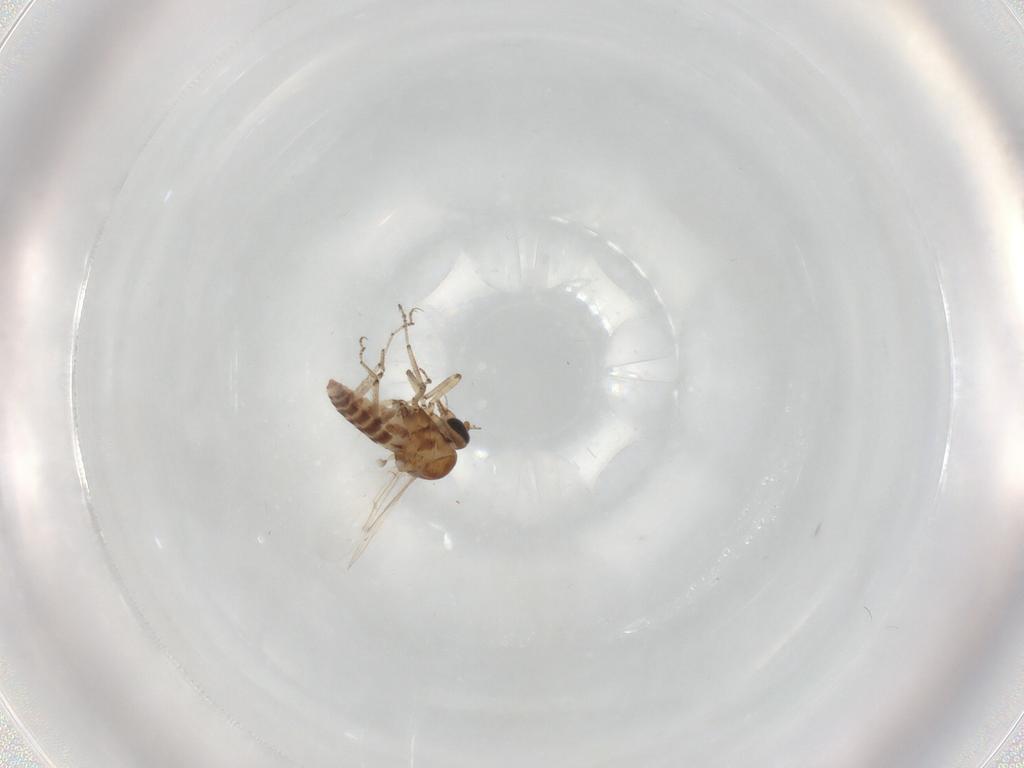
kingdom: Animalia
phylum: Arthropoda
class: Insecta
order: Diptera
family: Ceratopogonidae
